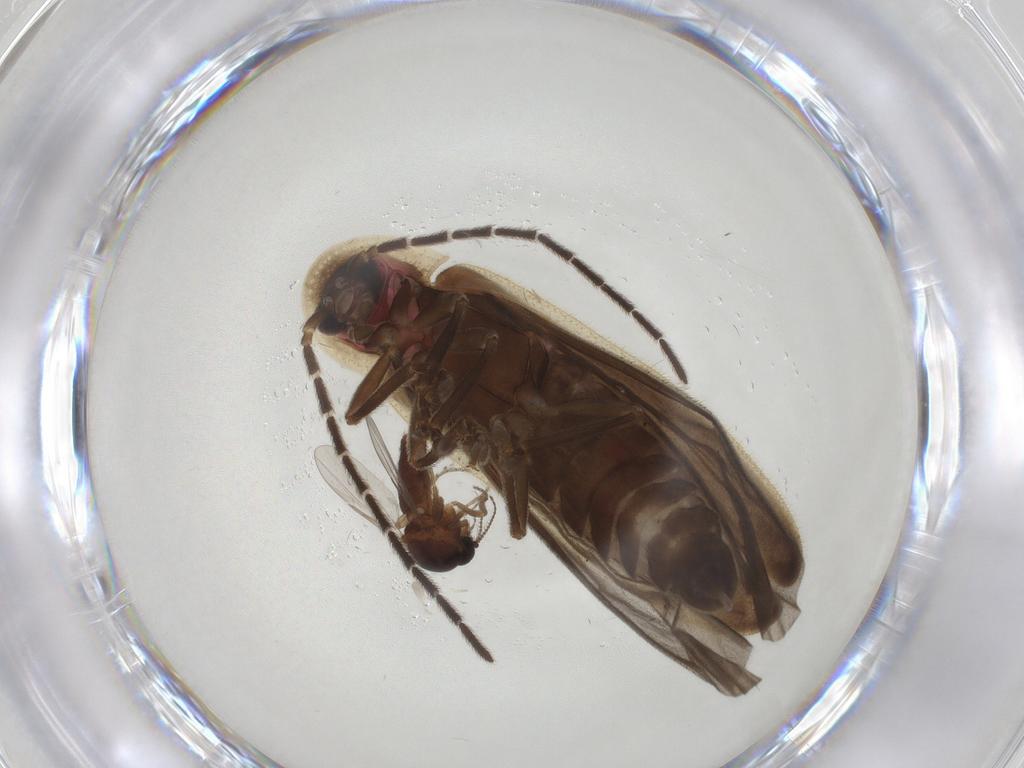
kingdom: Animalia
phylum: Arthropoda
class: Insecta
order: Coleoptera
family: Lampyridae
